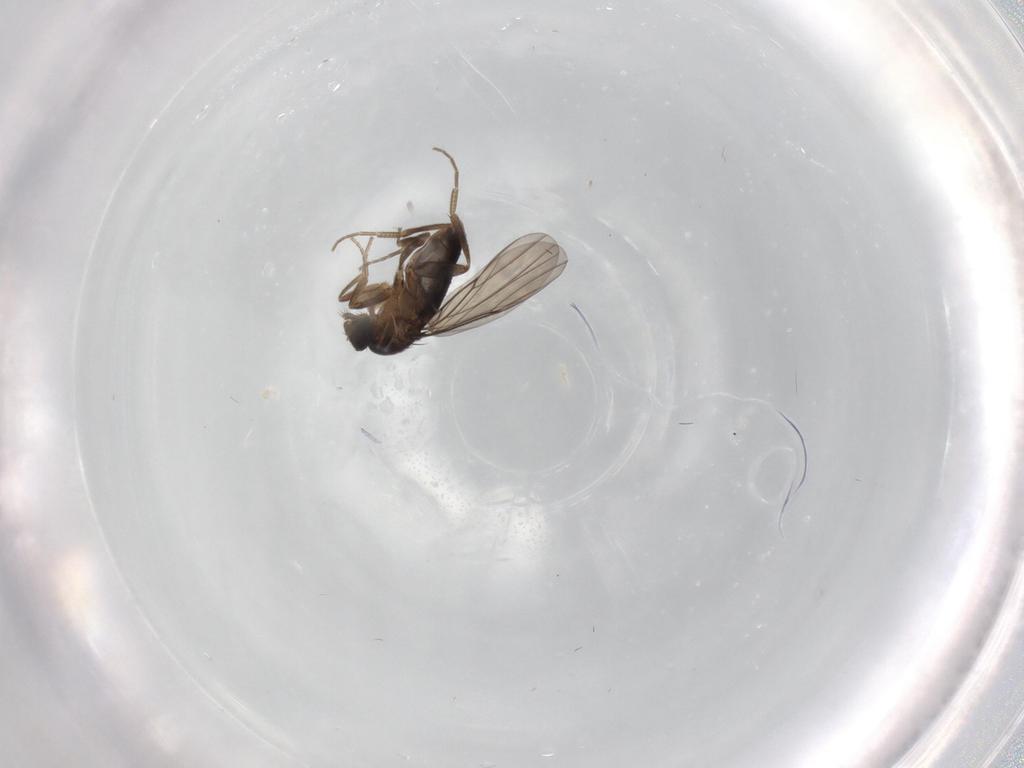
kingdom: Animalia
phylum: Arthropoda
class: Insecta
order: Diptera
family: Phoridae
